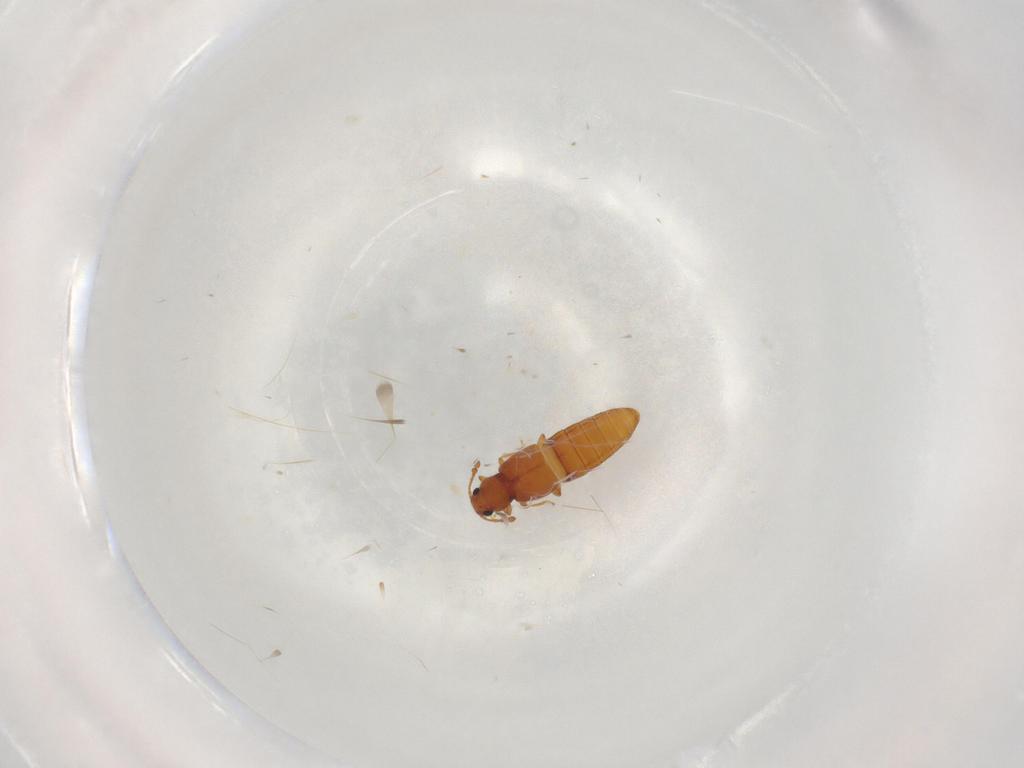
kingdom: Animalia
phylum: Arthropoda
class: Insecta
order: Coleoptera
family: Staphylinidae
